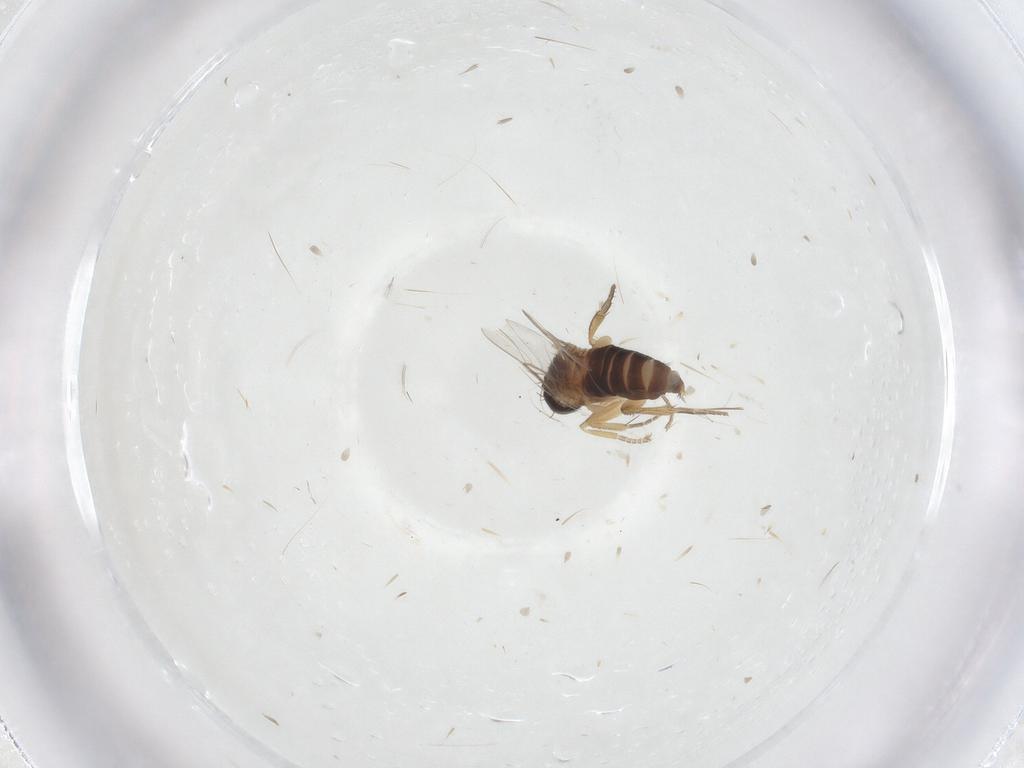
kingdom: Animalia
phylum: Arthropoda
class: Insecta
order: Diptera
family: Phoridae
